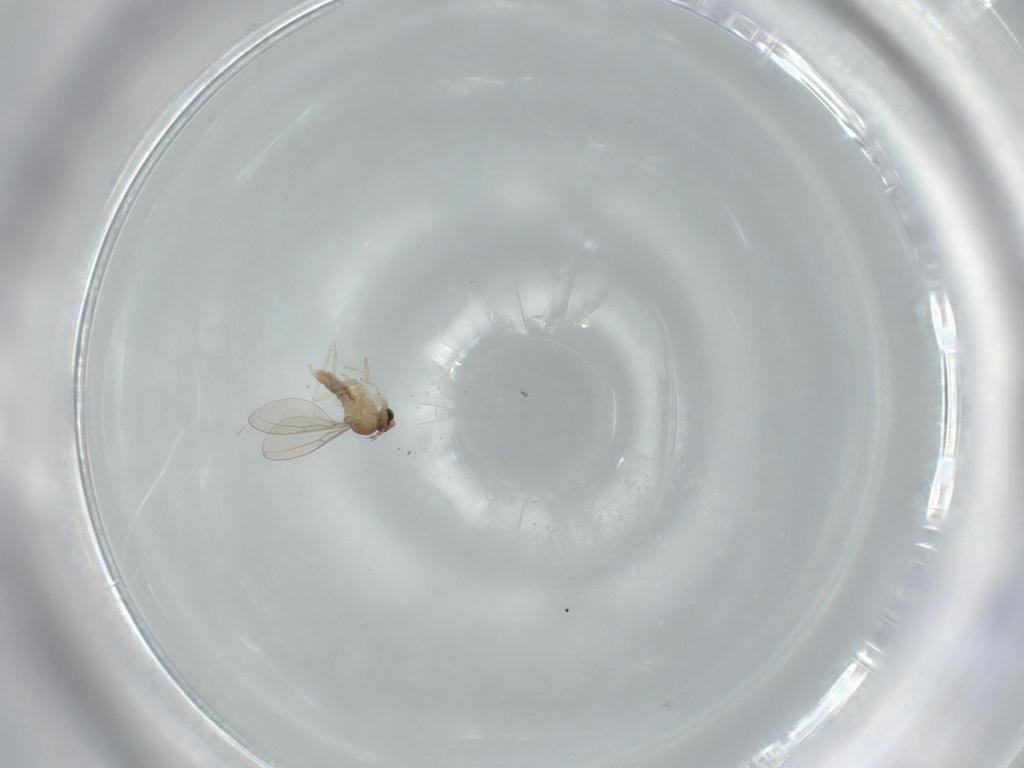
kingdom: Animalia
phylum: Arthropoda
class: Insecta
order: Diptera
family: Cecidomyiidae
